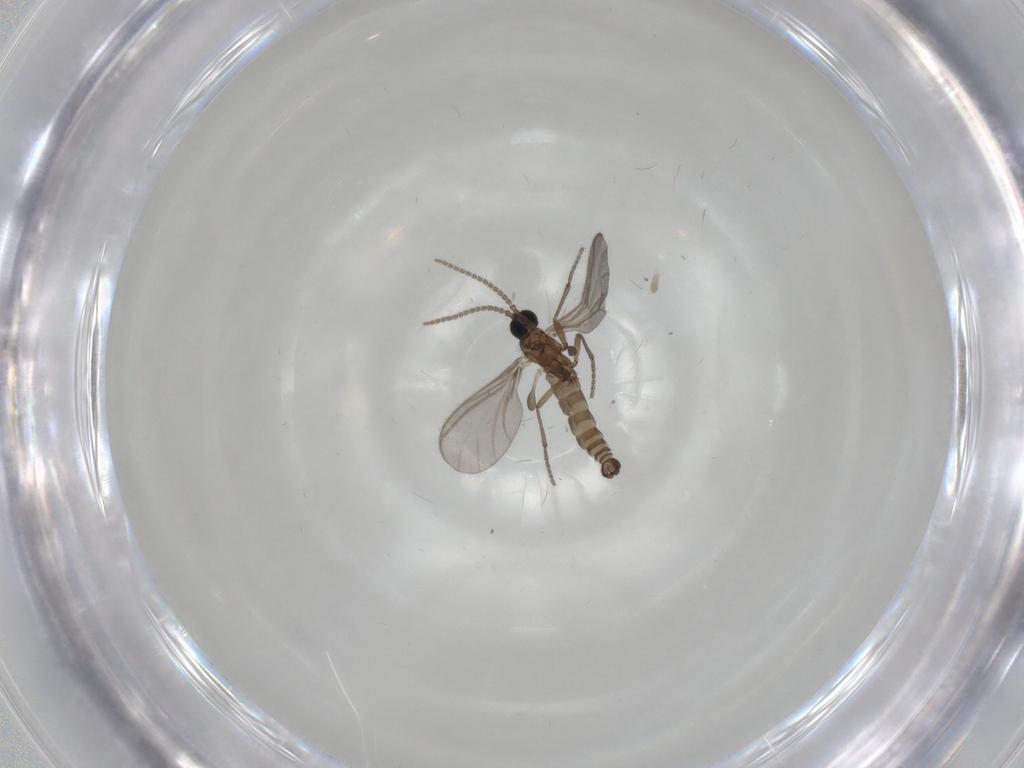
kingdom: Animalia
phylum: Arthropoda
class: Insecta
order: Diptera
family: Sciaridae
